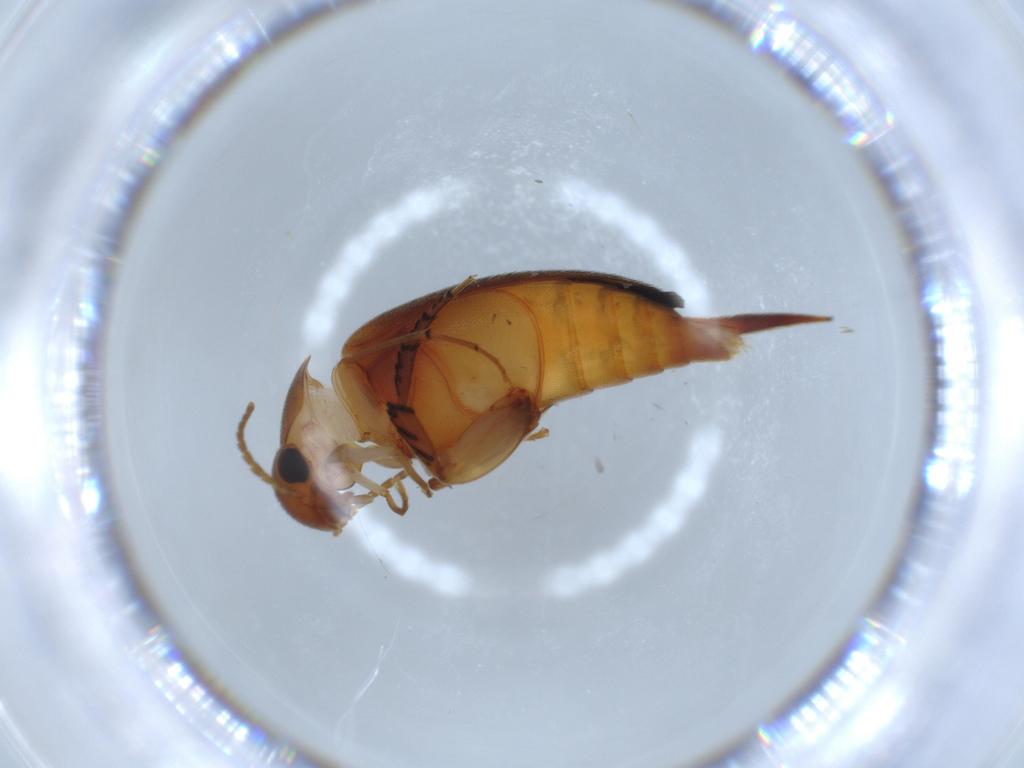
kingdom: Animalia
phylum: Arthropoda
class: Insecta
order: Coleoptera
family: Mordellidae
